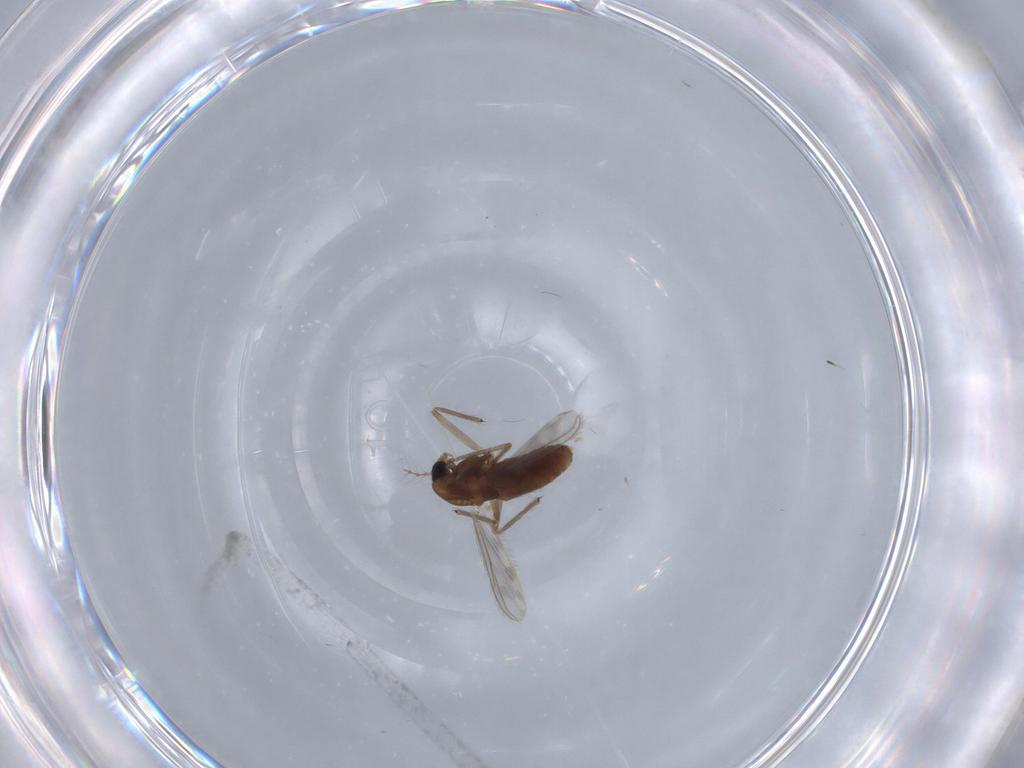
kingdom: Animalia
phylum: Arthropoda
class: Insecta
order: Diptera
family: Chironomidae
